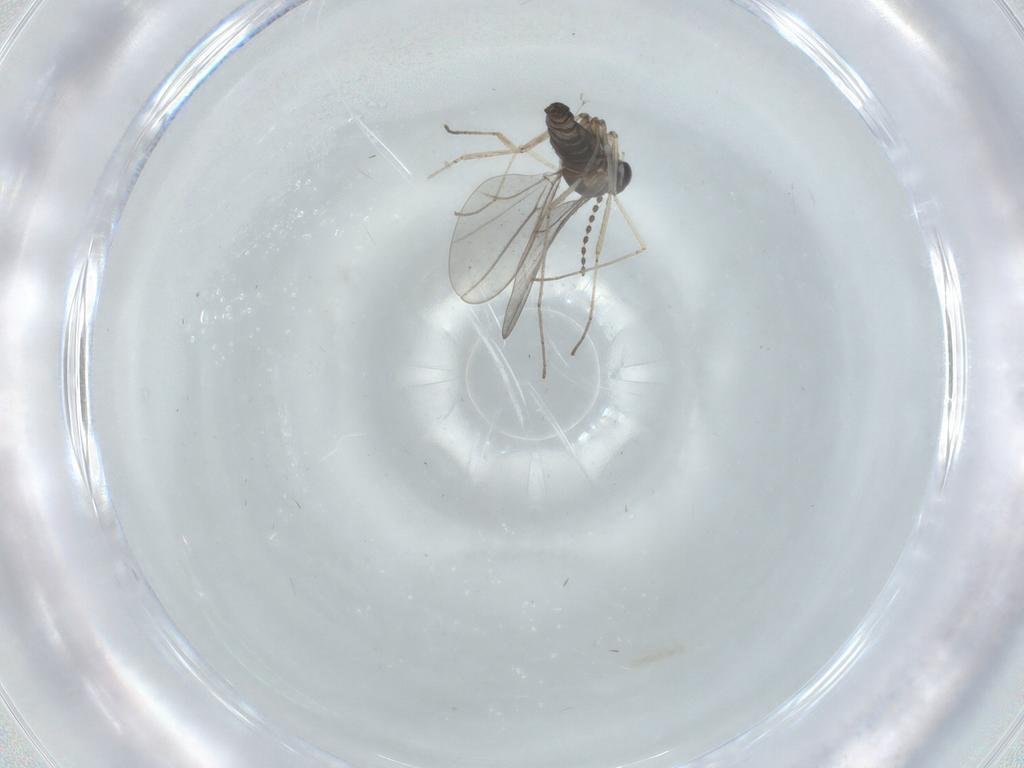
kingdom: Animalia
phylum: Arthropoda
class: Insecta
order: Diptera
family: Cecidomyiidae
